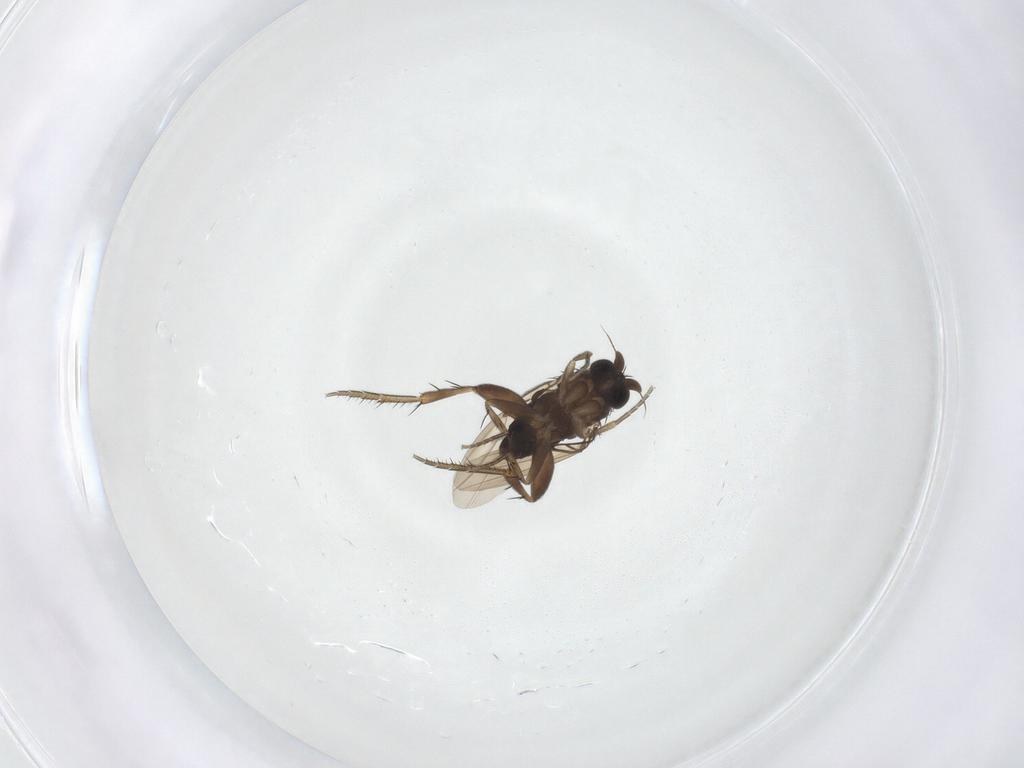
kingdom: Animalia
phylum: Arthropoda
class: Insecta
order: Diptera
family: Phoridae
